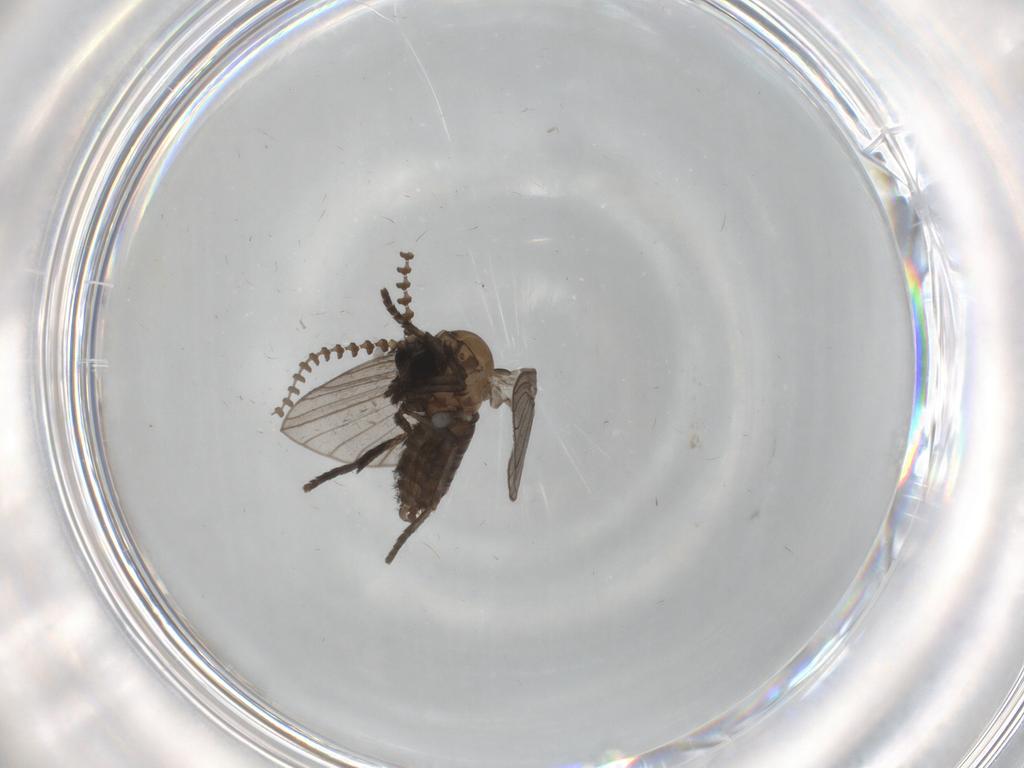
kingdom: Animalia
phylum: Arthropoda
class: Insecta
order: Diptera
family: Psychodidae
